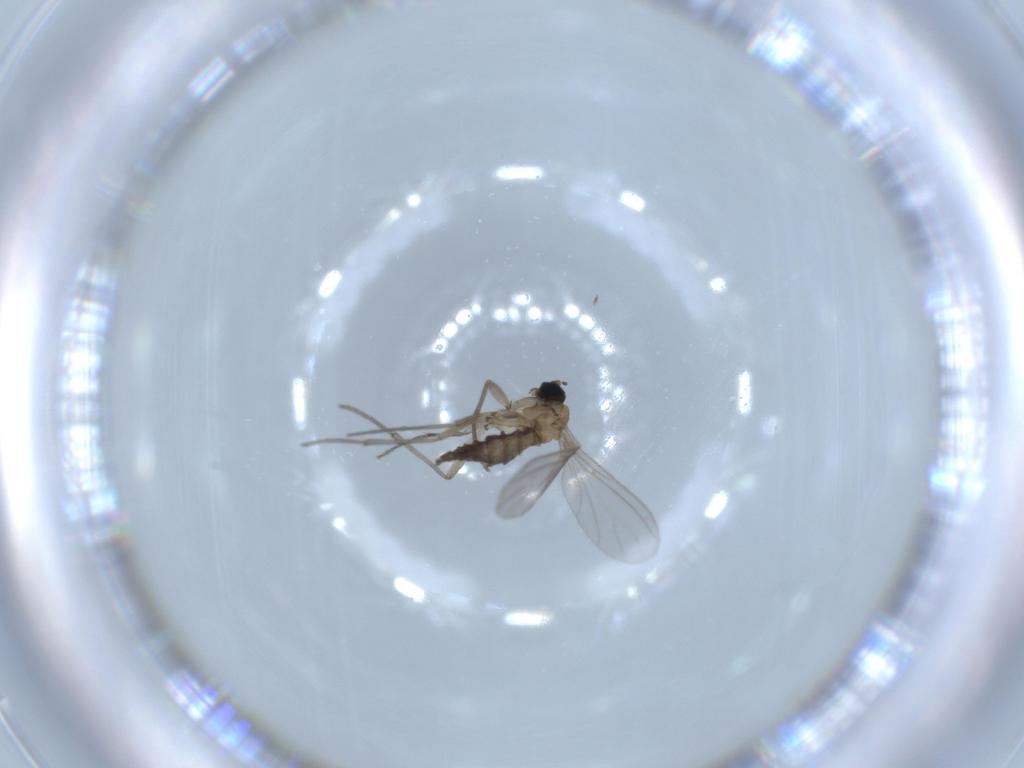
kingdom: Animalia
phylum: Arthropoda
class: Insecta
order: Diptera
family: Sciaridae
